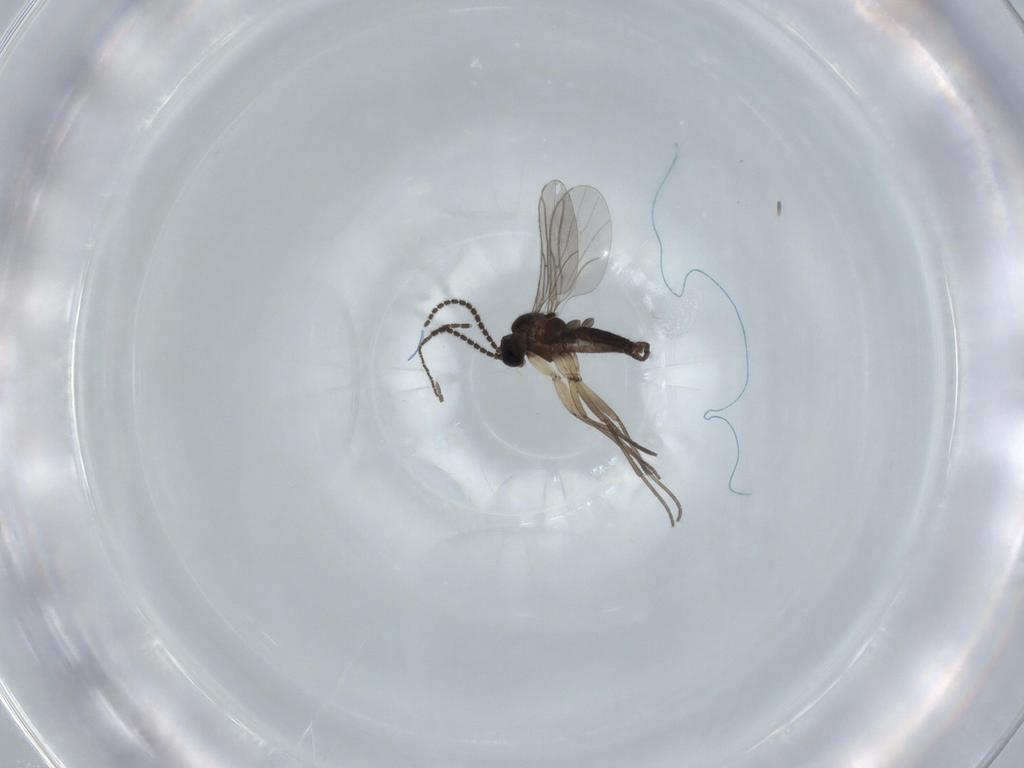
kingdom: Animalia
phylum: Arthropoda
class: Insecta
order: Diptera
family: Sciaridae
